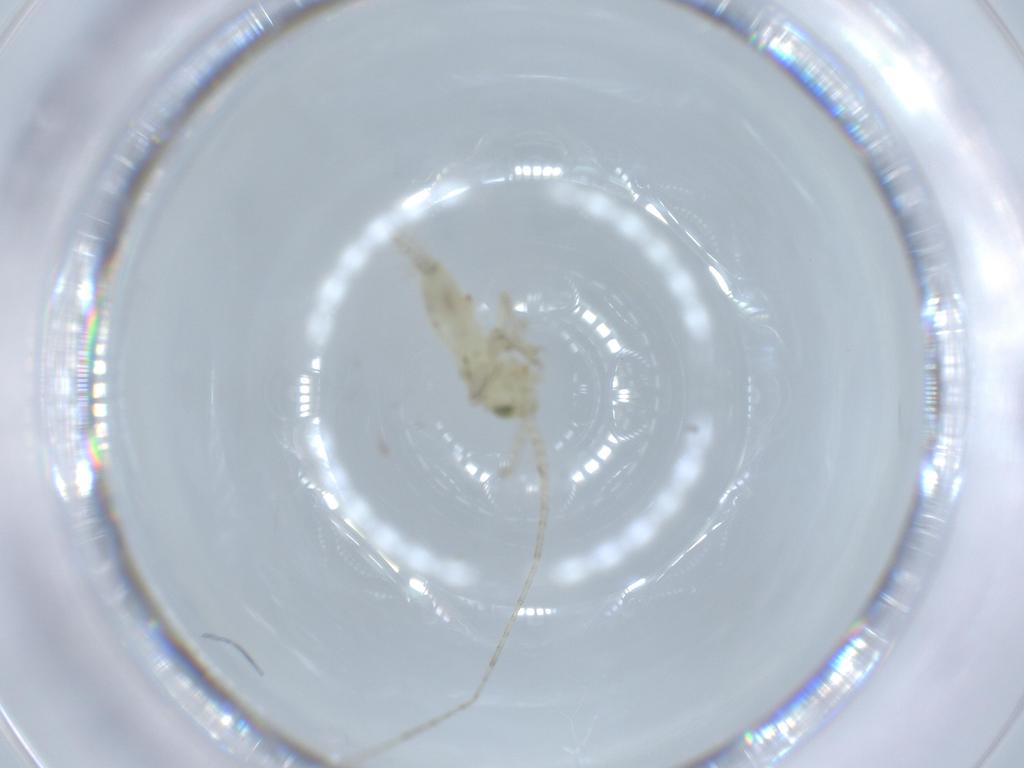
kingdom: Animalia
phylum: Arthropoda
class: Insecta
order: Orthoptera
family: Trigonidiidae
